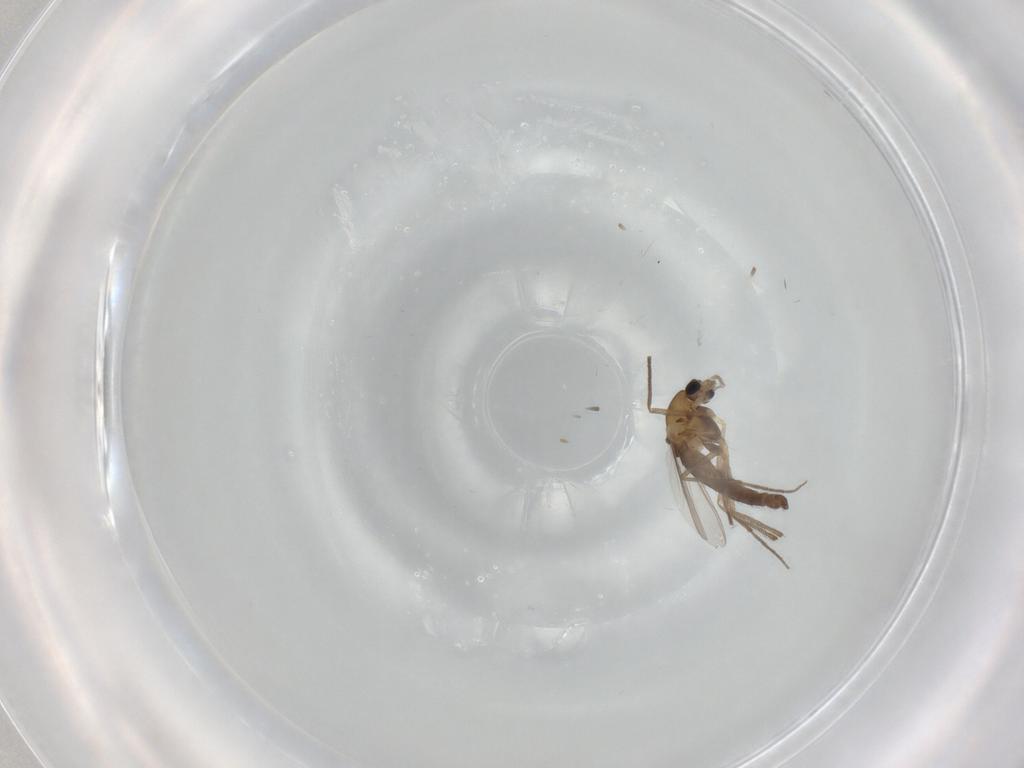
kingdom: Animalia
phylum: Arthropoda
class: Insecta
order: Diptera
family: Chironomidae
